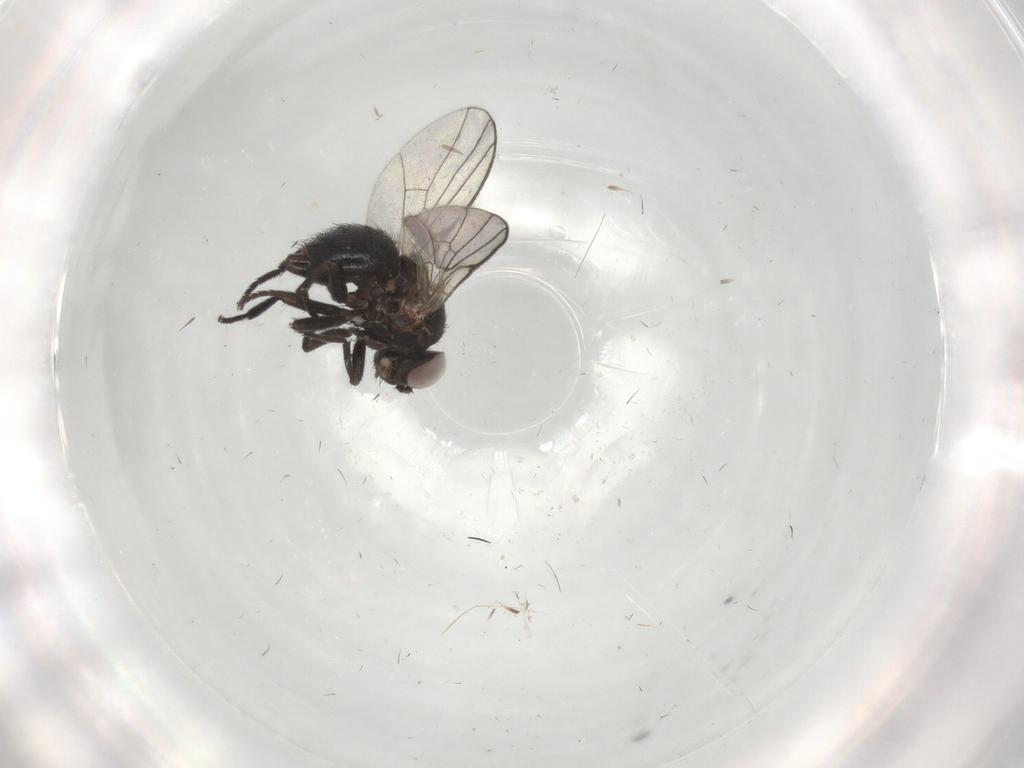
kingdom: Animalia
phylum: Arthropoda
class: Insecta
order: Diptera
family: Agromyzidae
